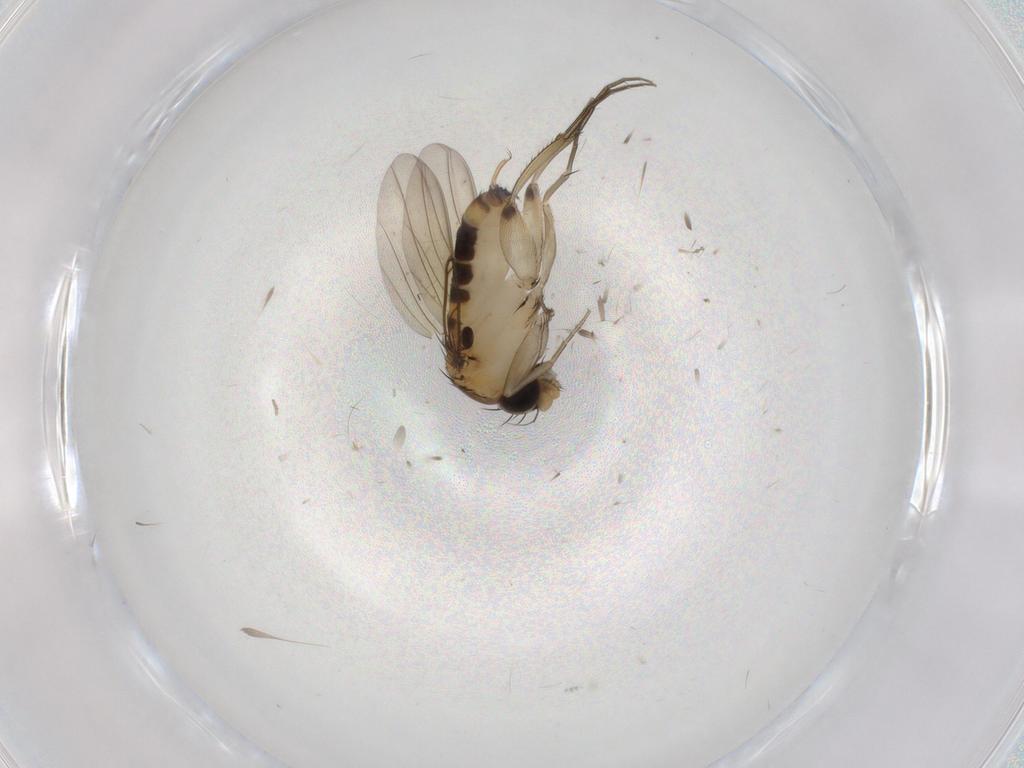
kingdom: Animalia
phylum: Arthropoda
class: Insecta
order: Diptera
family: Phoridae
